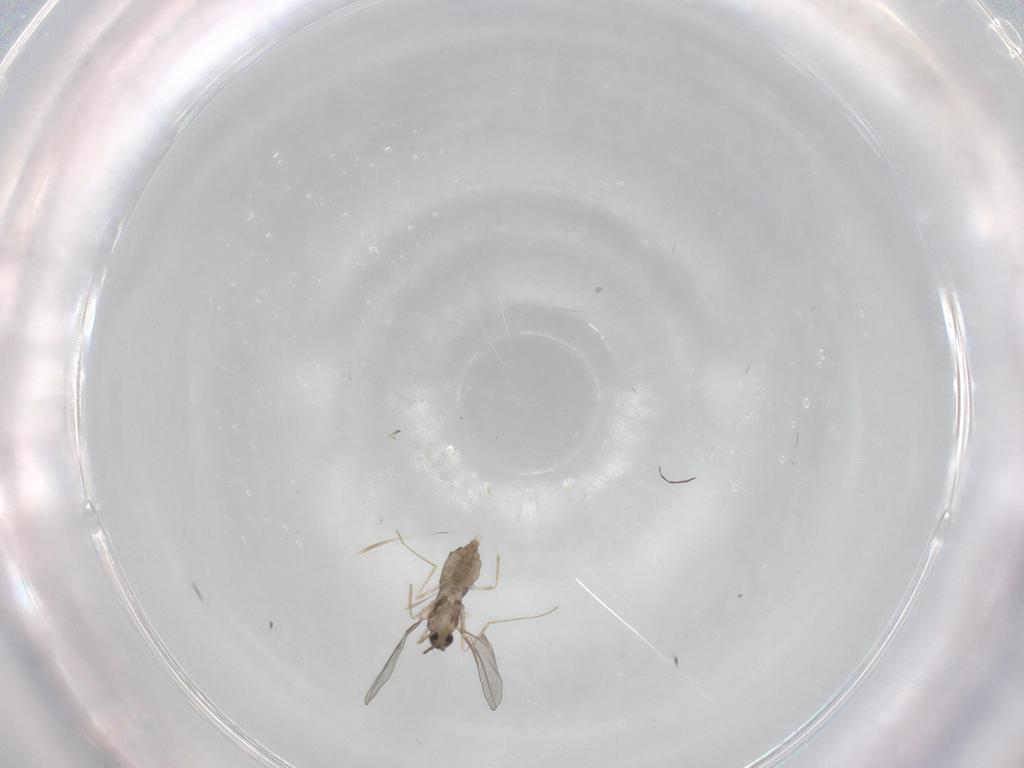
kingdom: Animalia
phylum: Arthropoda
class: Insecta
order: Diptera
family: Cecidomyiidae
